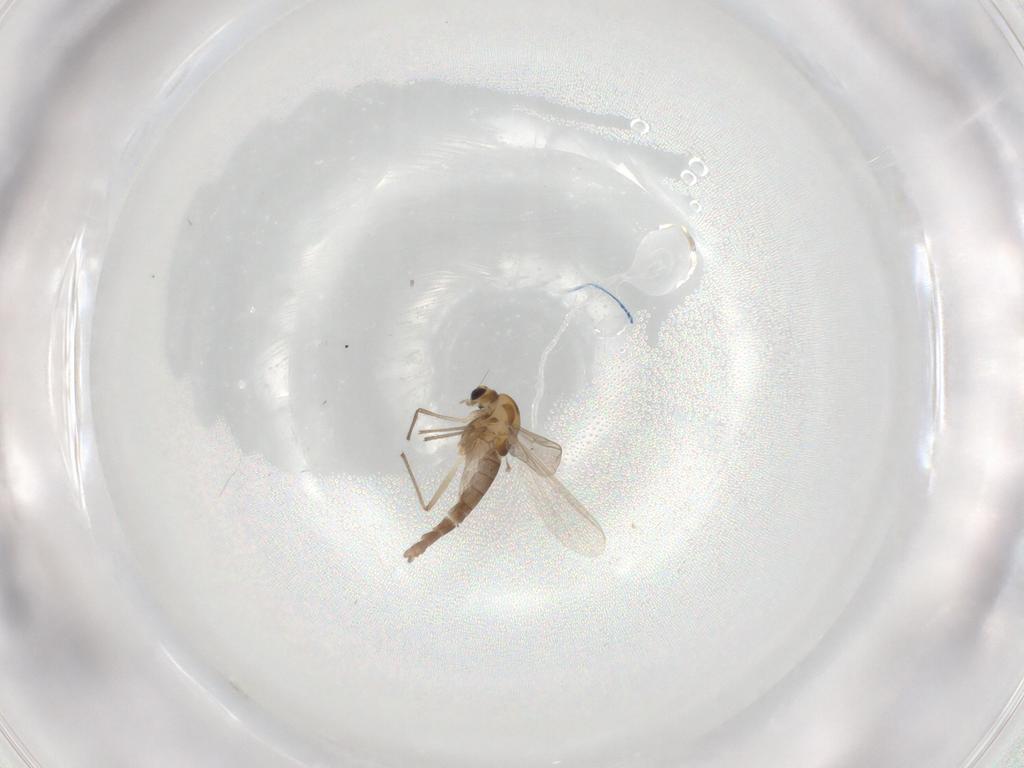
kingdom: Animalia
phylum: Arthropoda
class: Insecta
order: Diptera
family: Chironomidae
